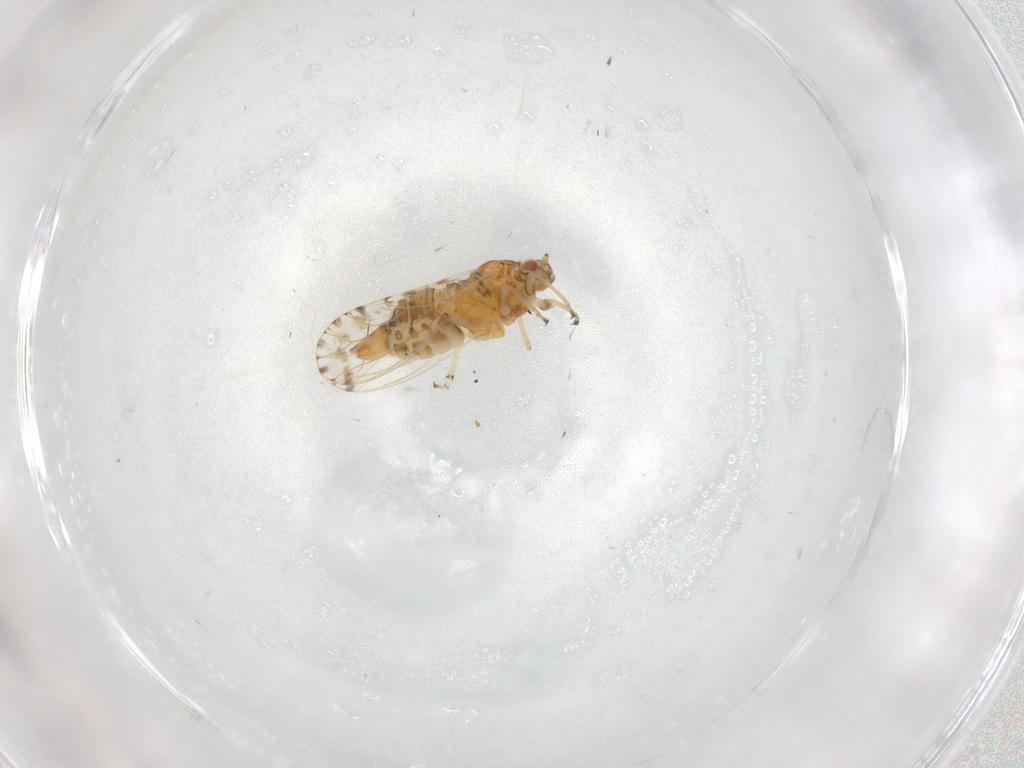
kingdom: Animalia
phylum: Arthropoda
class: Insecta
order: Hemiptera
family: Psyllidae
